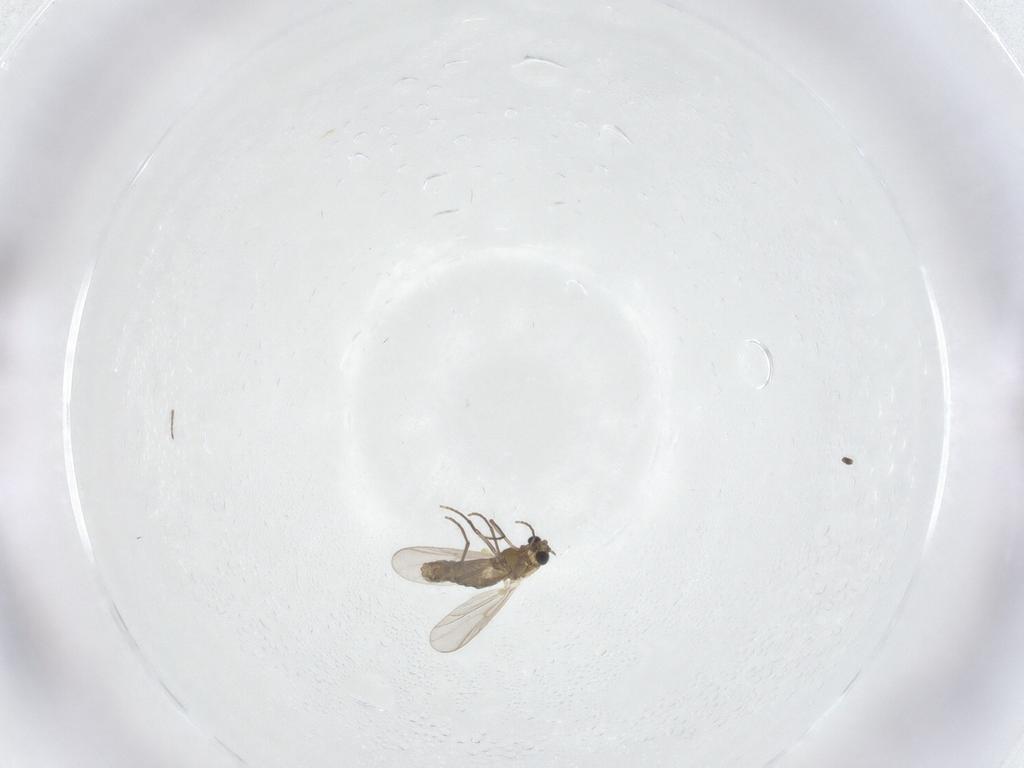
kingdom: Animalia
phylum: Arthropoda
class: Insecta
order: Diptera
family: Chironomidae
